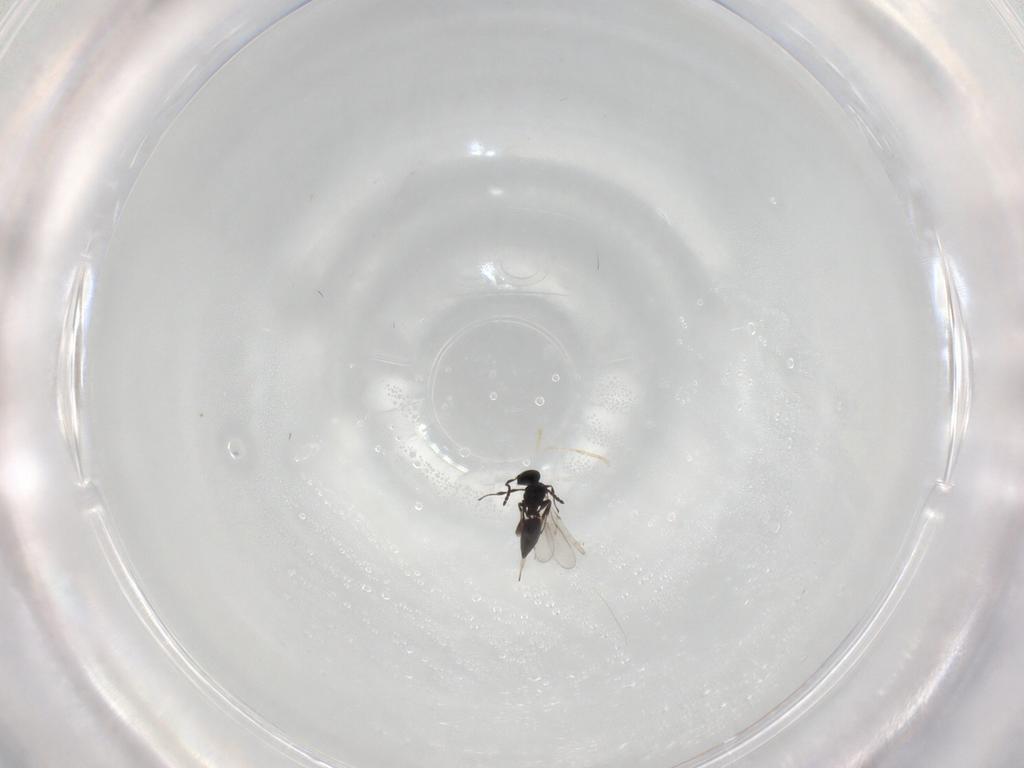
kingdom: Animalia
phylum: Arthropoda
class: Insecta
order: Hymenoptera
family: Scelionidae
